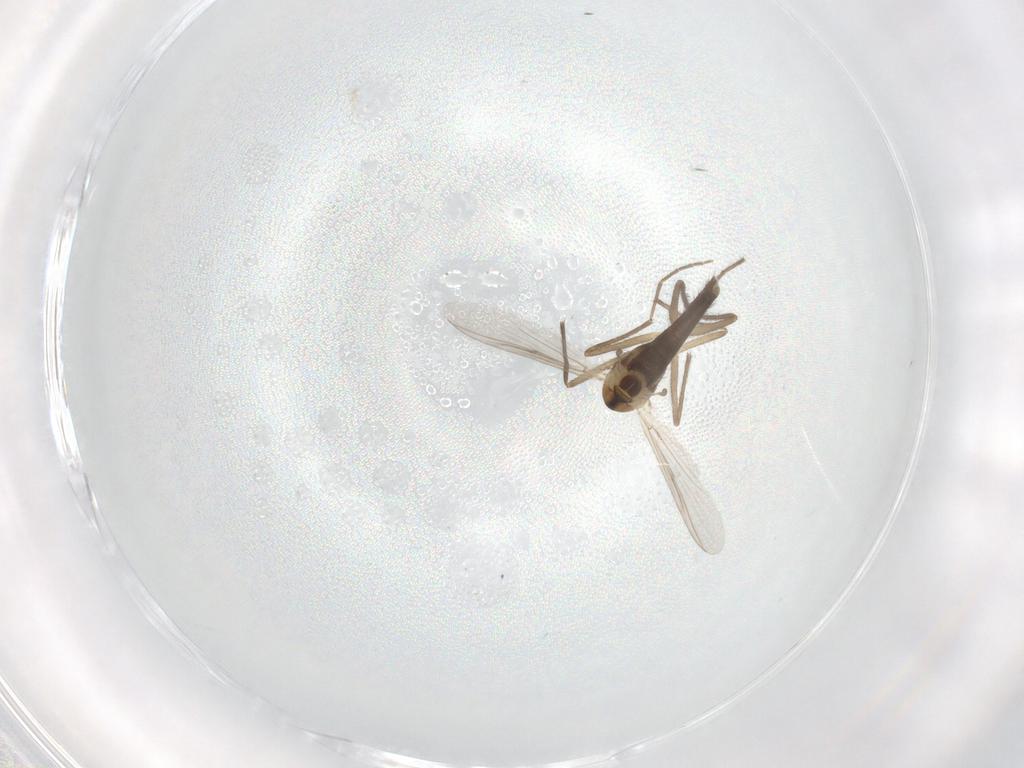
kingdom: Animalia
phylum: Arthropoda
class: Insecta
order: Diptera
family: Chironomidae
